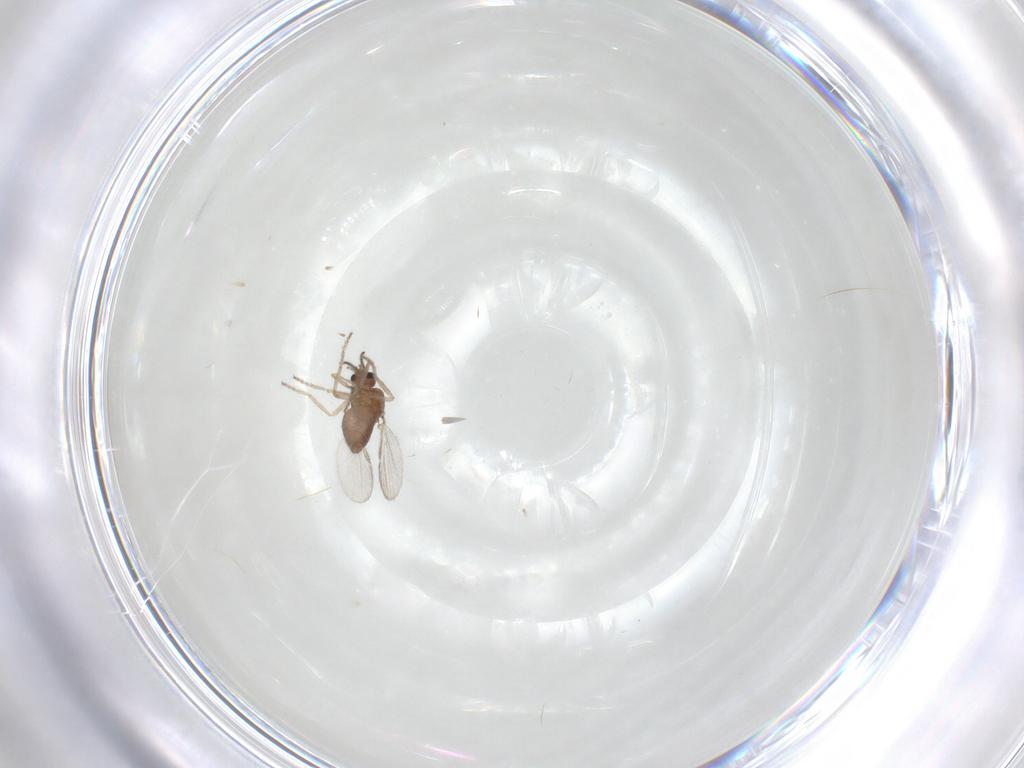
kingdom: Animalia
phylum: Arthropoda
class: Insecta
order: Diptera
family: Ceratopogonidae
